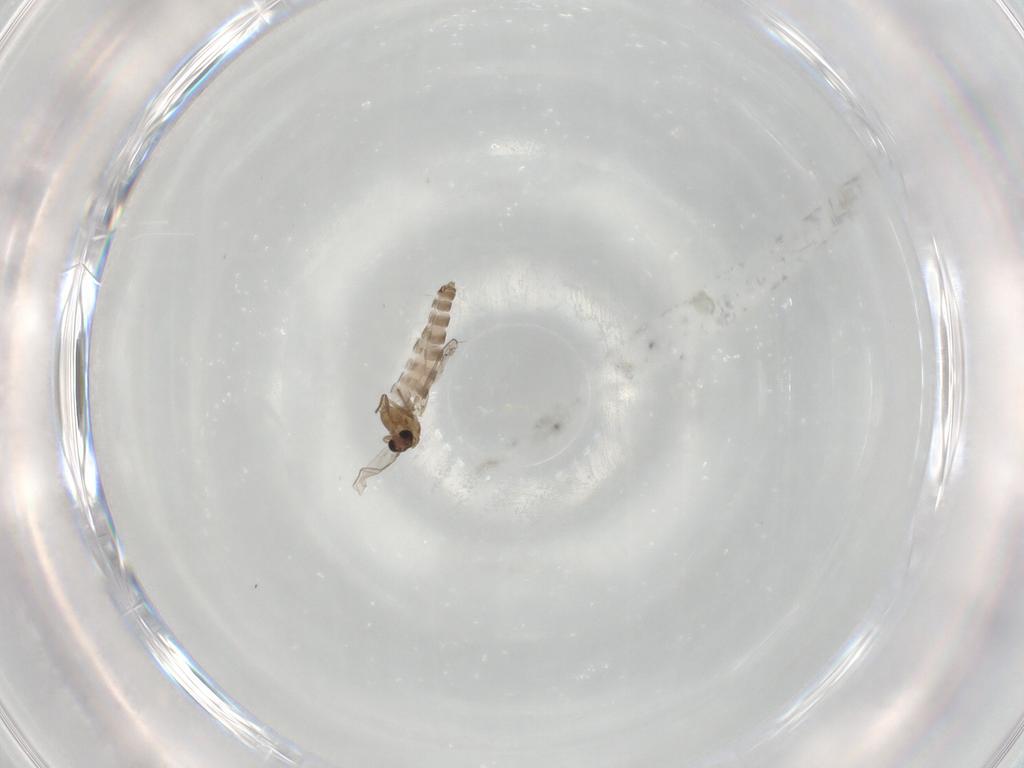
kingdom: Animalia
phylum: Arthropoda
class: Insecta
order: Diptera
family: Chironomidae
